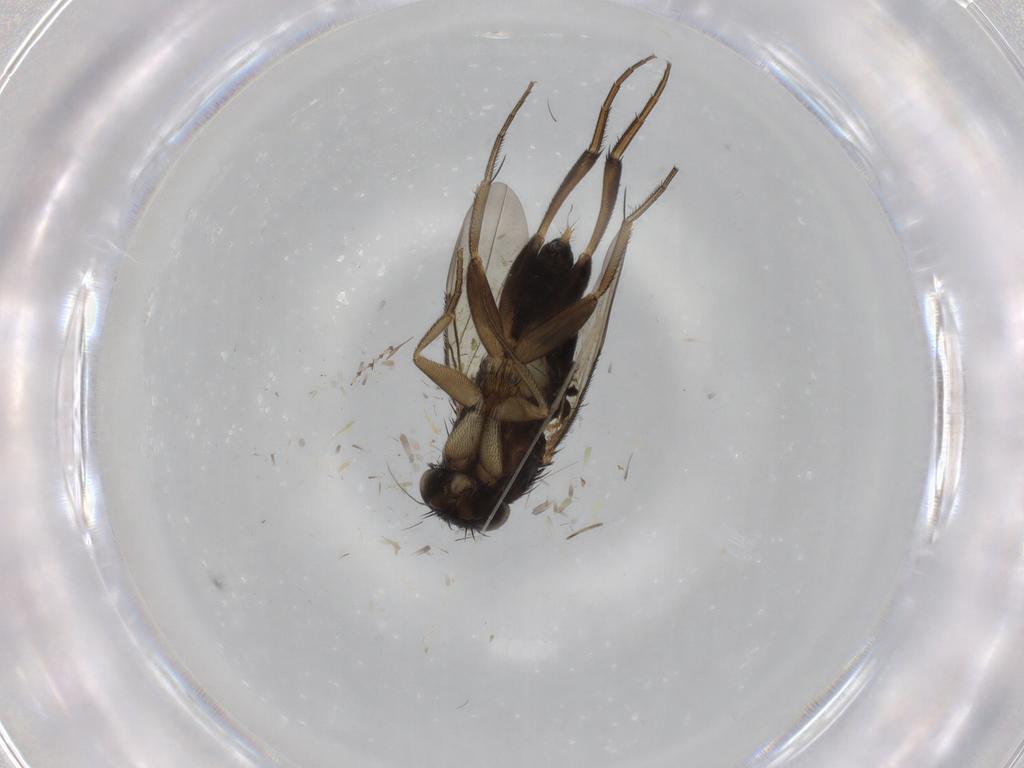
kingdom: Animalia
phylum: Arthropoda
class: Insecta
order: Diptera
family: Phoridae
